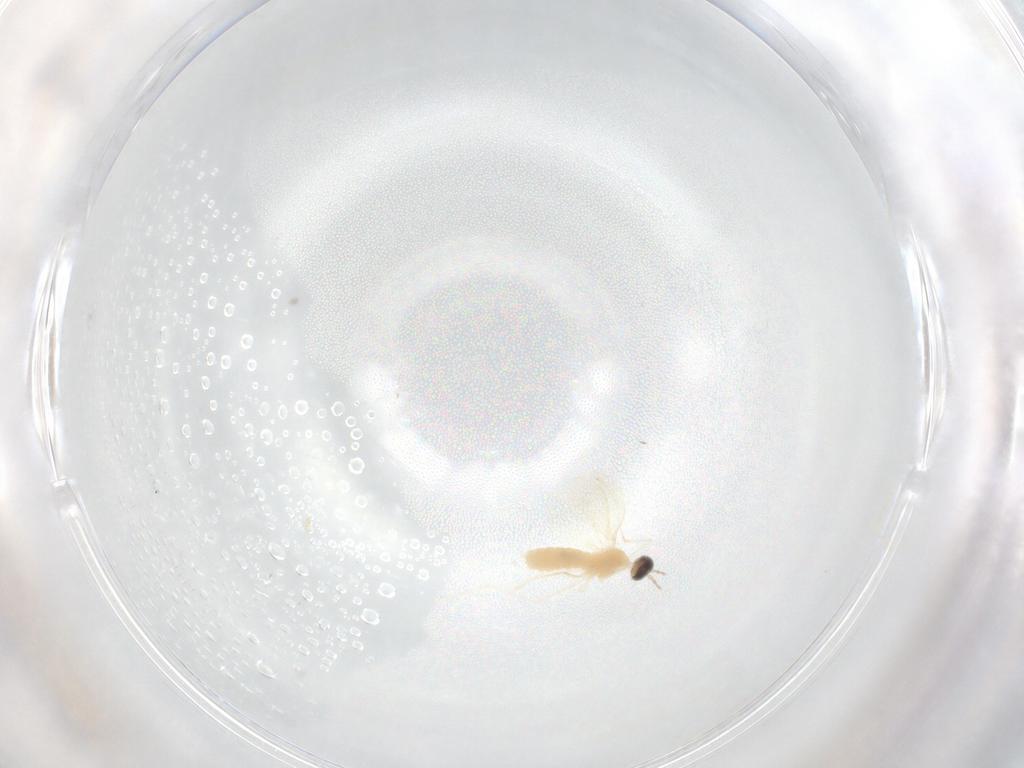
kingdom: Animalia
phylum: Arthropoda
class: Insecta
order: Diptera
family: Cecidomyiidae
